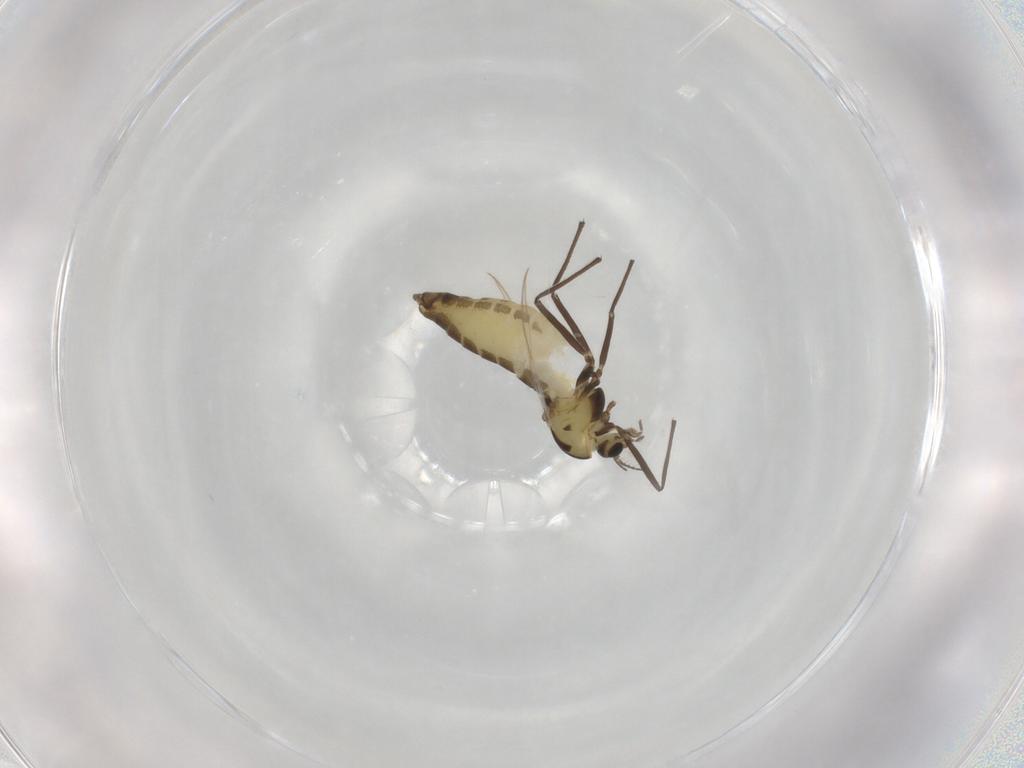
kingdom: Animalia
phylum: Arthropoda
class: Insecta
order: Diptera
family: Chironomidae
